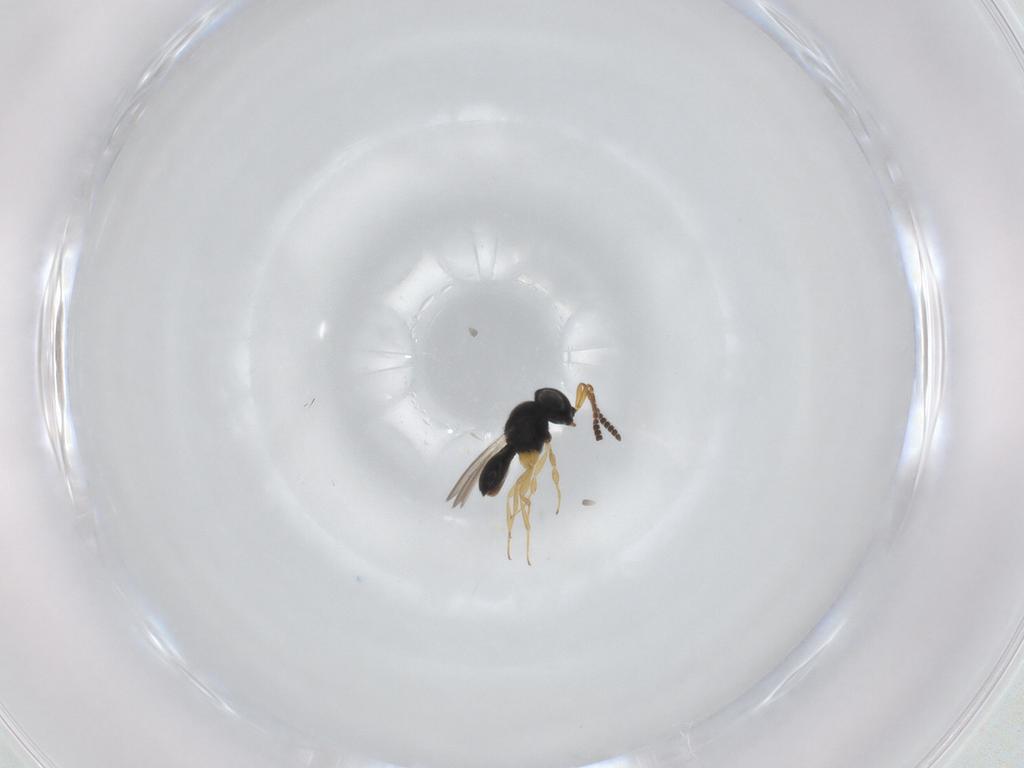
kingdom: Animalia
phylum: Arthropoda
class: Insecta
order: Hymenoptera
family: Scelionidae
